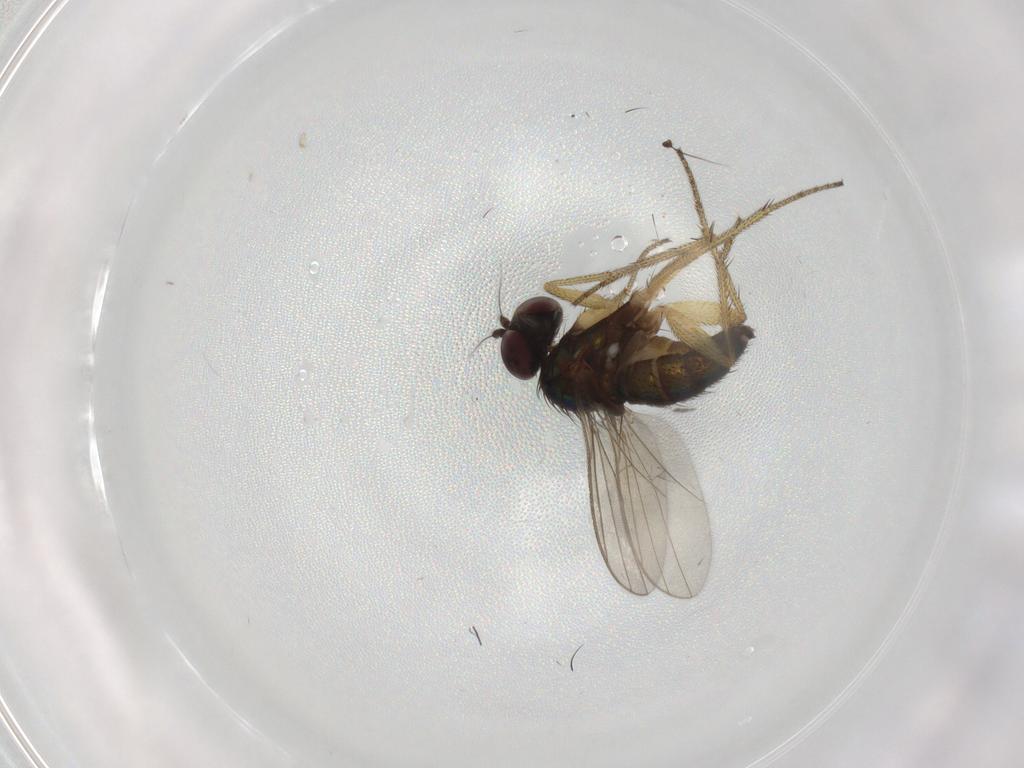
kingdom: Animalia
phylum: Arthropoda
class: Insecta
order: Diptera
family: Dolichopodidae
